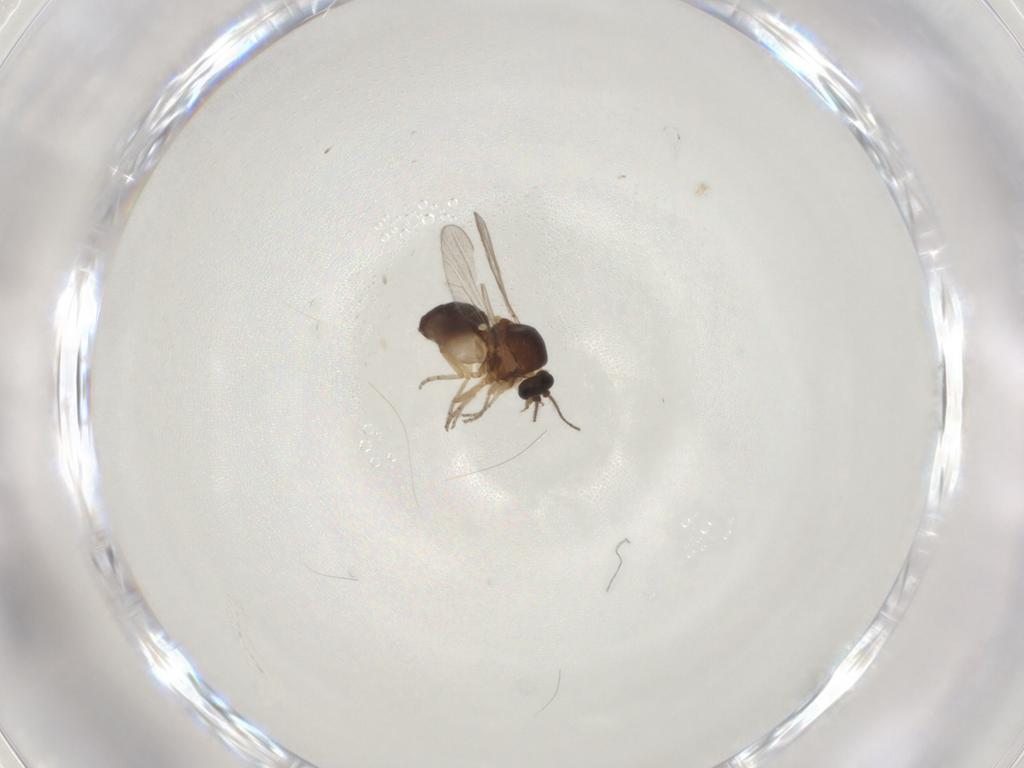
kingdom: Animalia
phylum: Arthropoda
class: Insecta
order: Diptera
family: Ceratopogonidae
